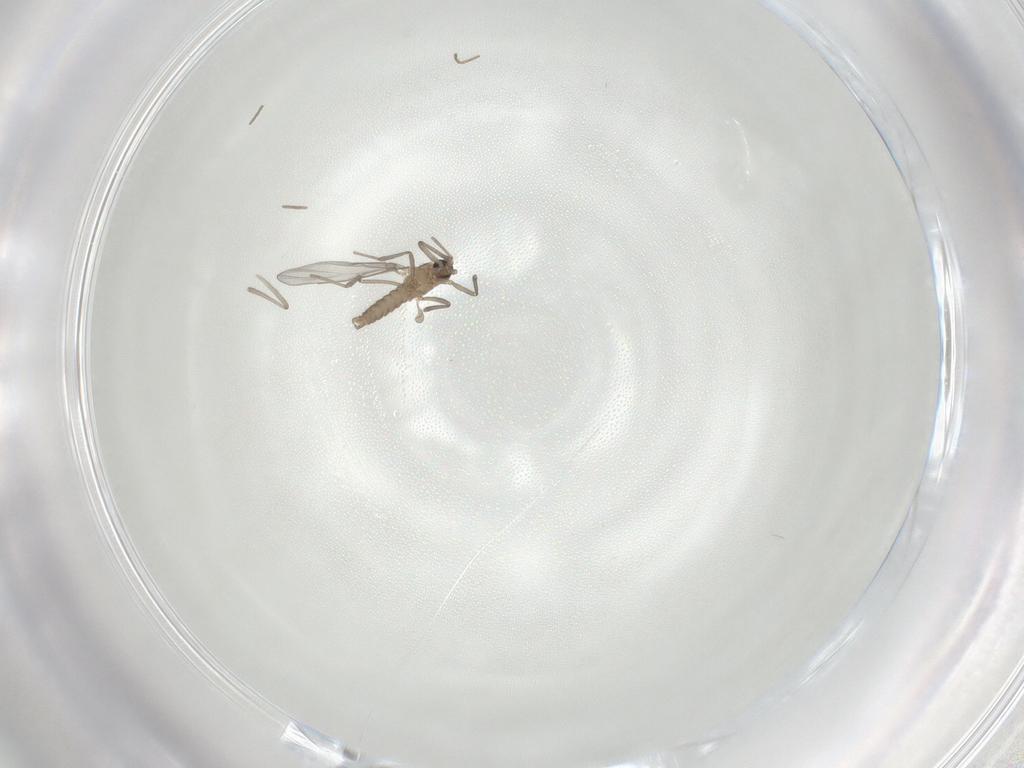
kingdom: Animalia
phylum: Arthropoda
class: Insecta
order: Diptera
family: Cecidomyiidae
